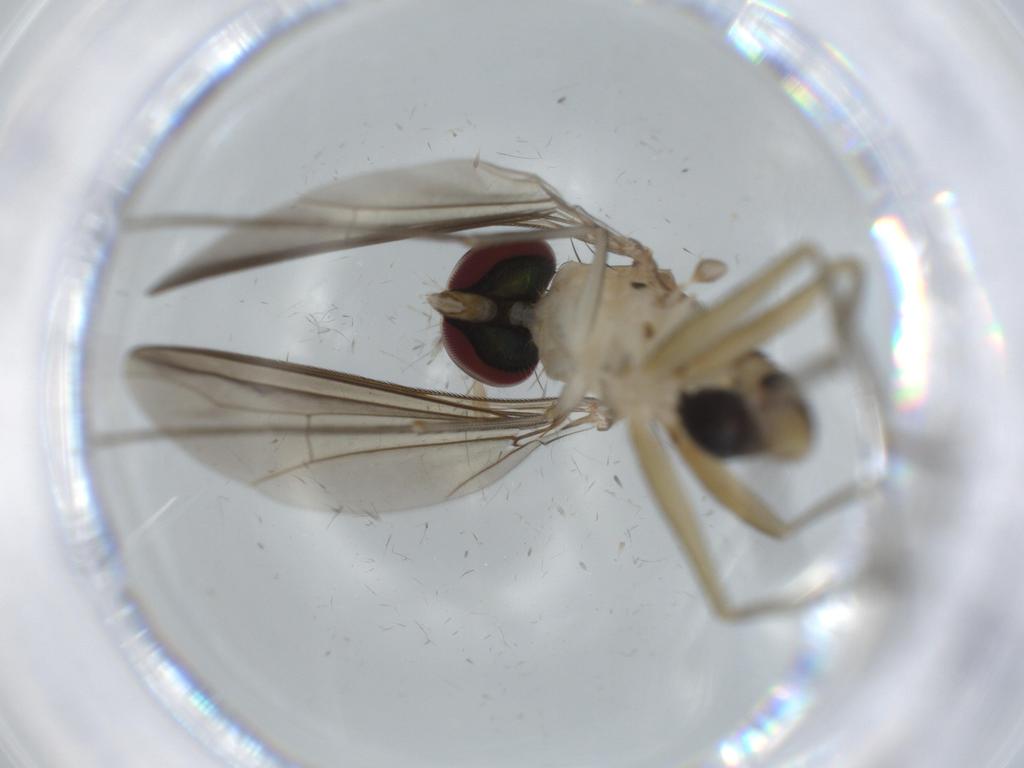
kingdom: Animalia
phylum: Arthropoda
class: Insecta
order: Diptera
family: Dolichopodidae
